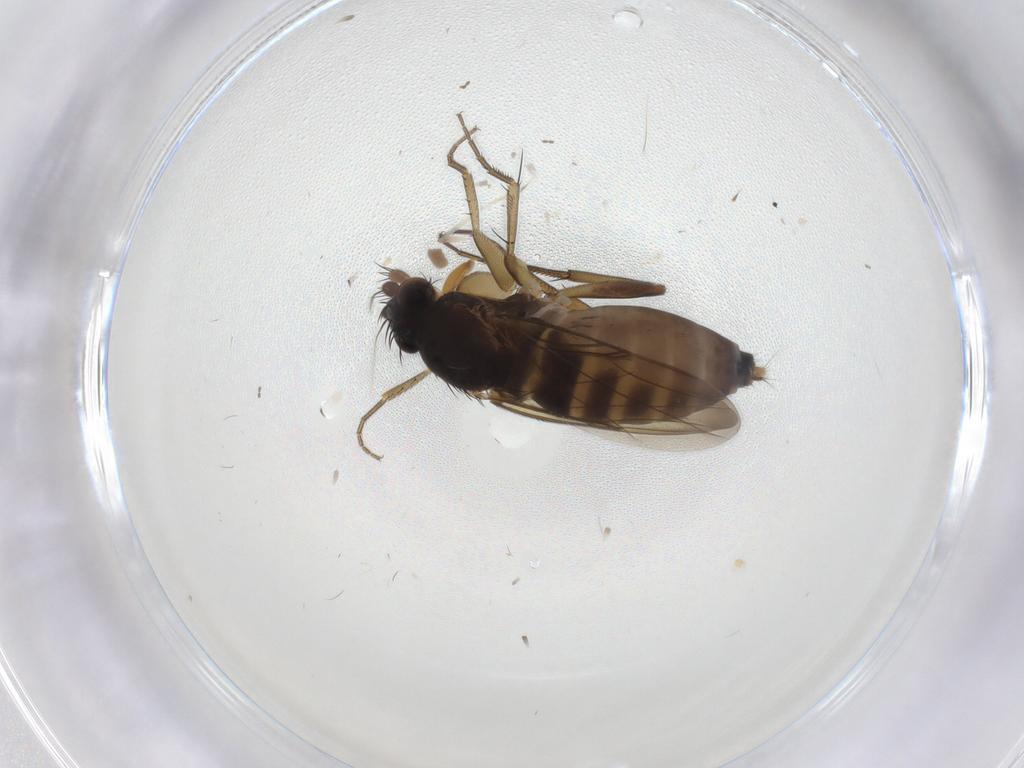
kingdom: Animalia
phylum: Arthropoda
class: Insecta
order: Diptera
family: Phoridae
